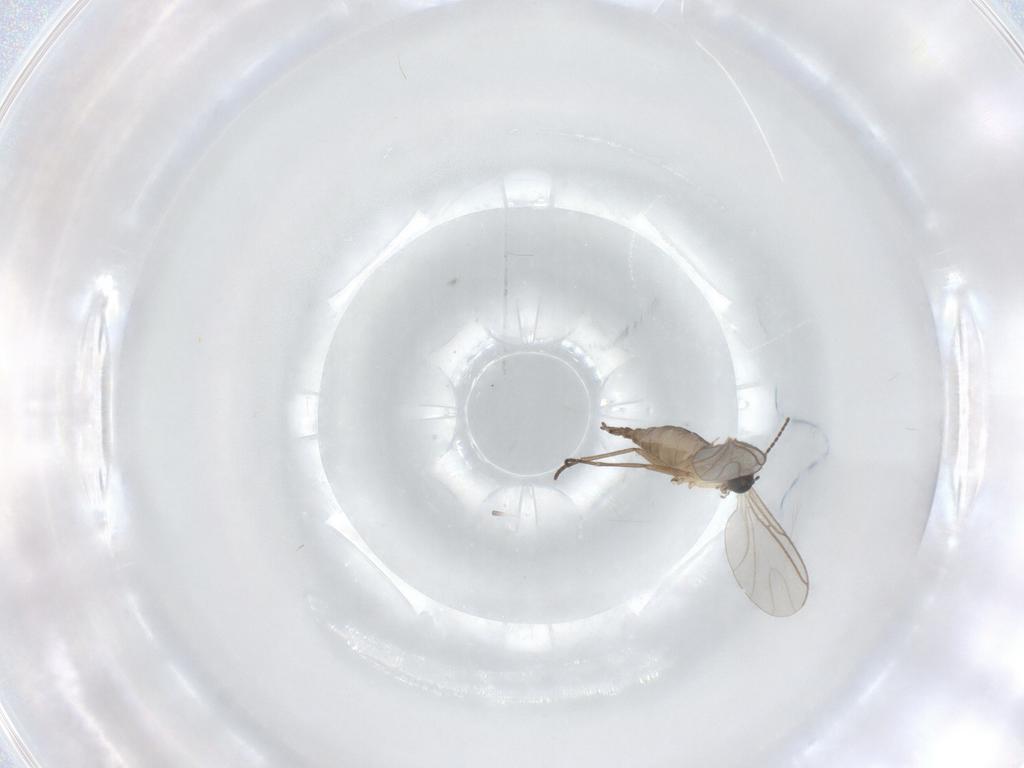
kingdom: Animalia
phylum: Arthropoda
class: Insecta
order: Diptera
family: Sciaridae
